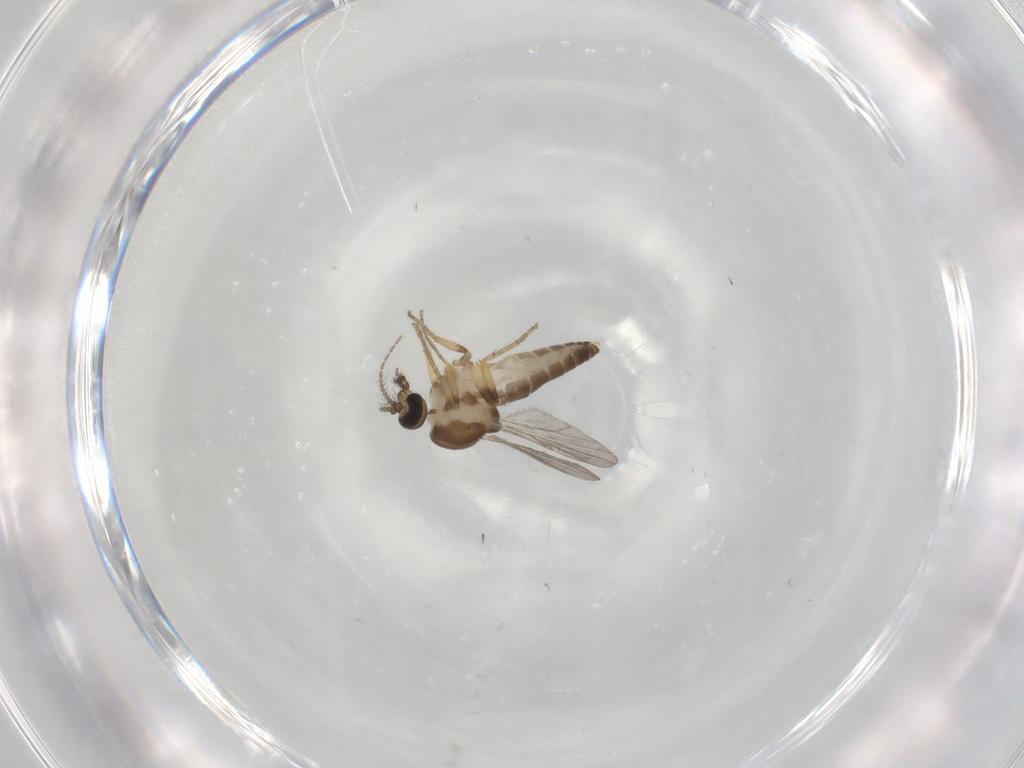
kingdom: Animalia
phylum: Arthropoda
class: Insecta
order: Diptera
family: Ceratopogonidae
